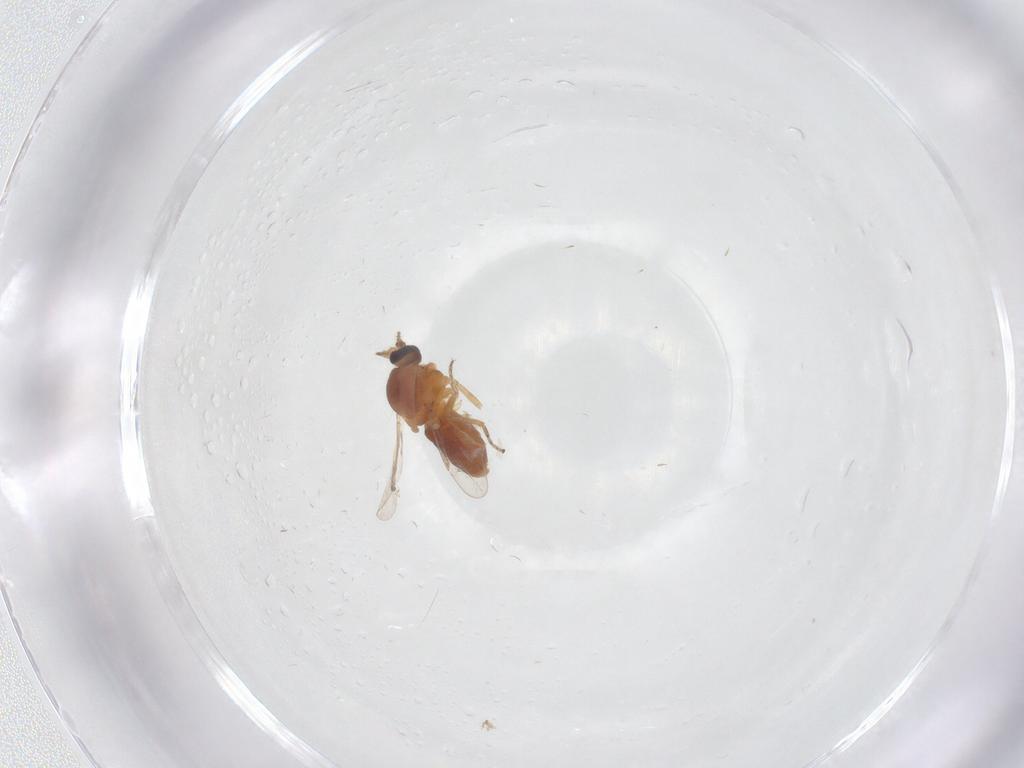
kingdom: Animalia
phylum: Arthropoda
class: Insecta
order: Diptera
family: Ceratopogonidae
